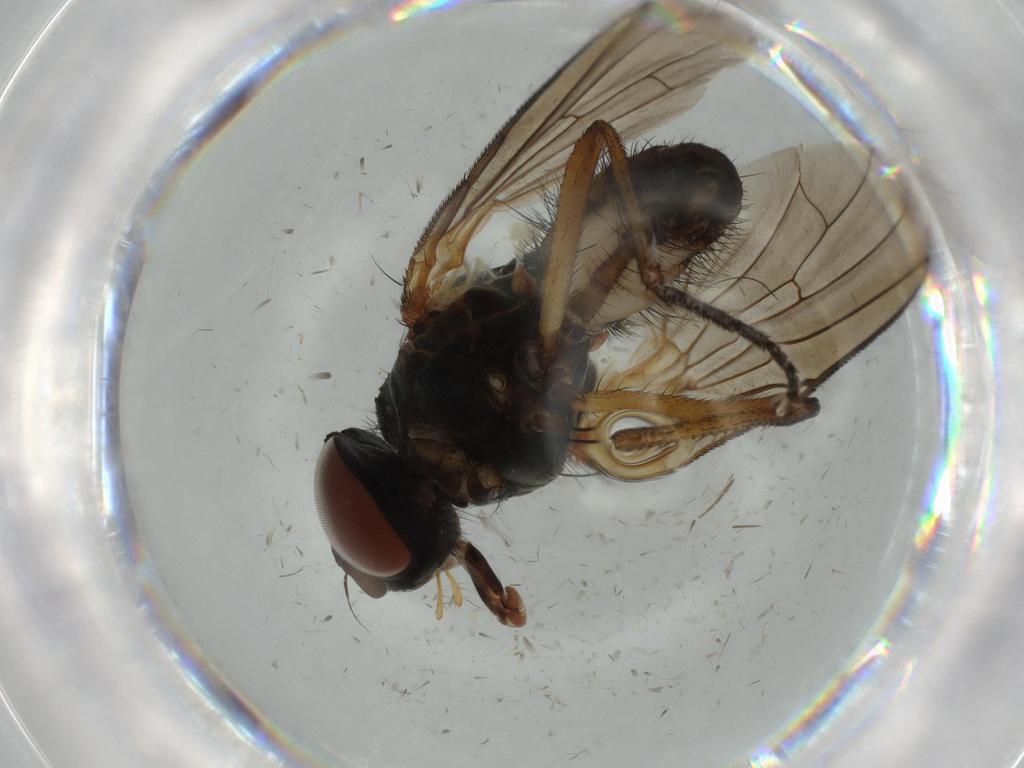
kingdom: Animalia
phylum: Arthropoda
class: Insecta
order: Diptera
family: Cecidomyiidae
